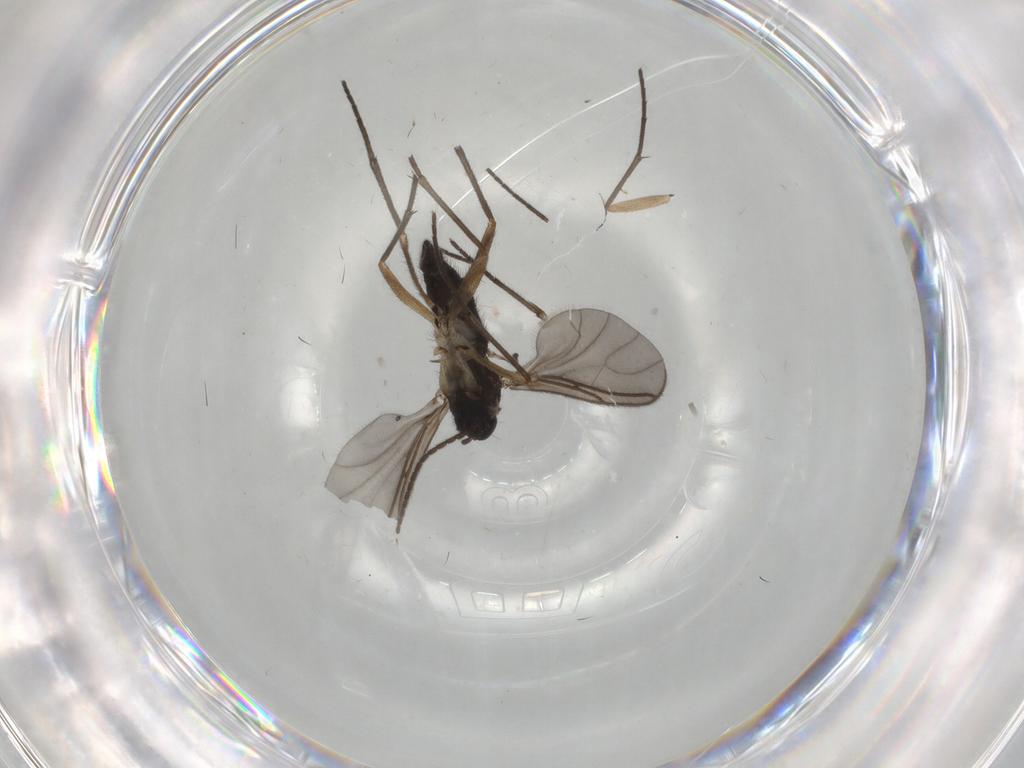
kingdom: Animalia
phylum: Arthropoda
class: Insecta
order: Diptera
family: Sciaridae
